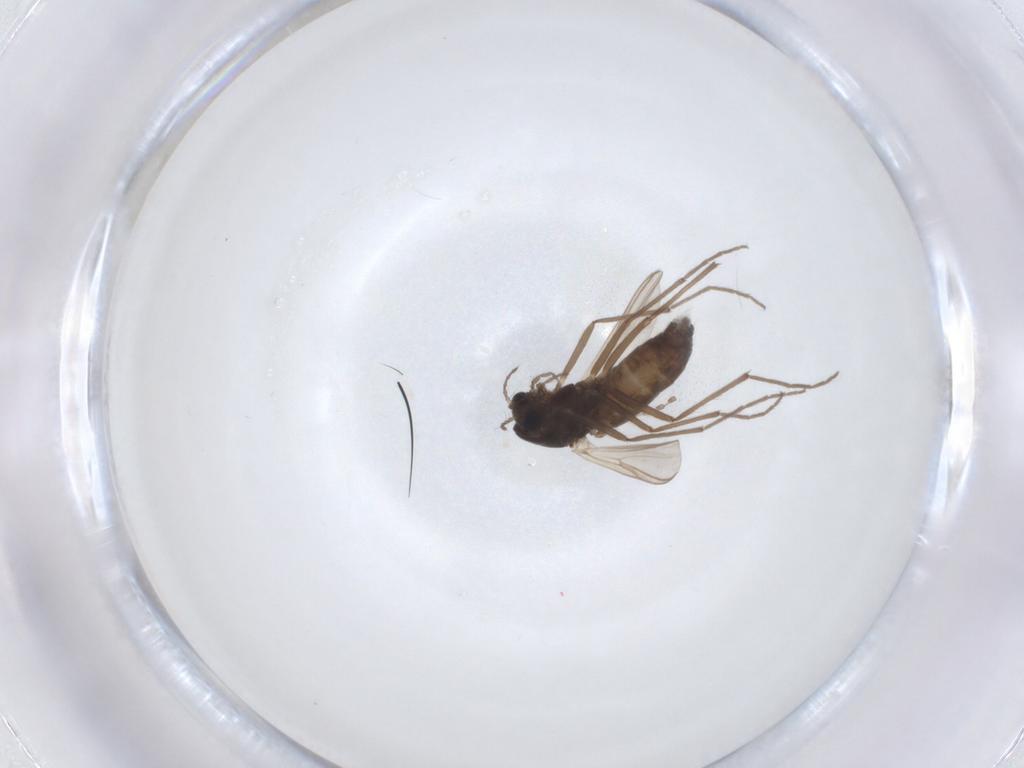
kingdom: Animalia
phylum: Arthropoda
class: Insecta
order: Diptera
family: Chironomidae
